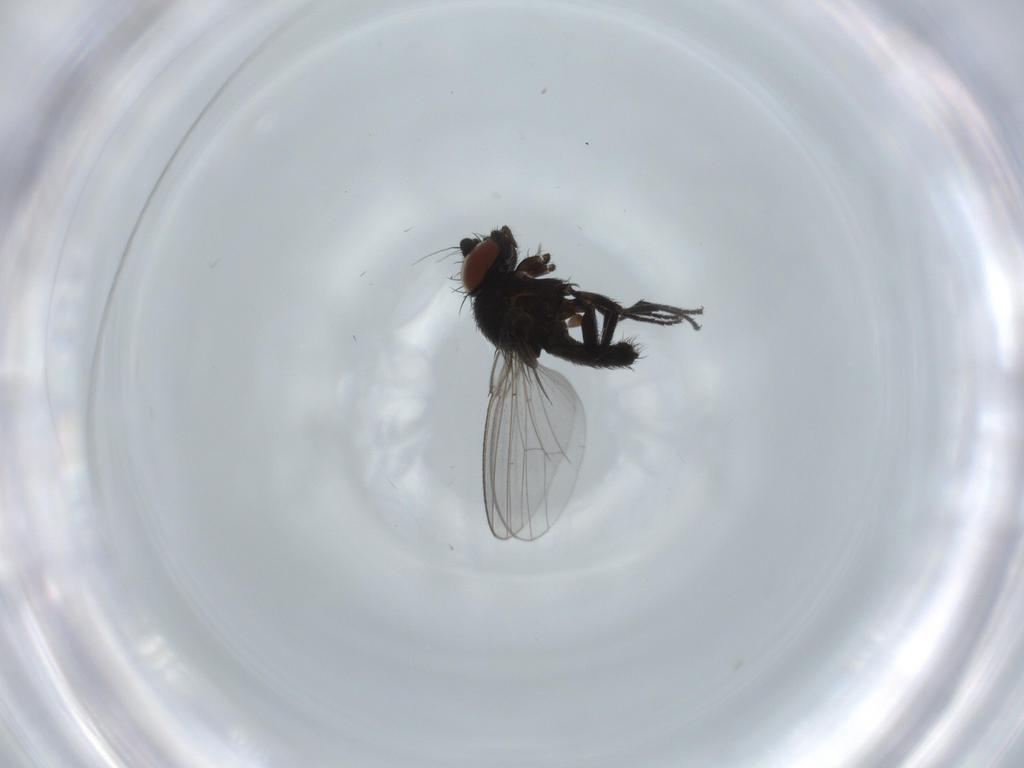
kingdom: Animalia
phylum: Arthropoda
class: Insecta
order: Diptera
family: Milichiidae
